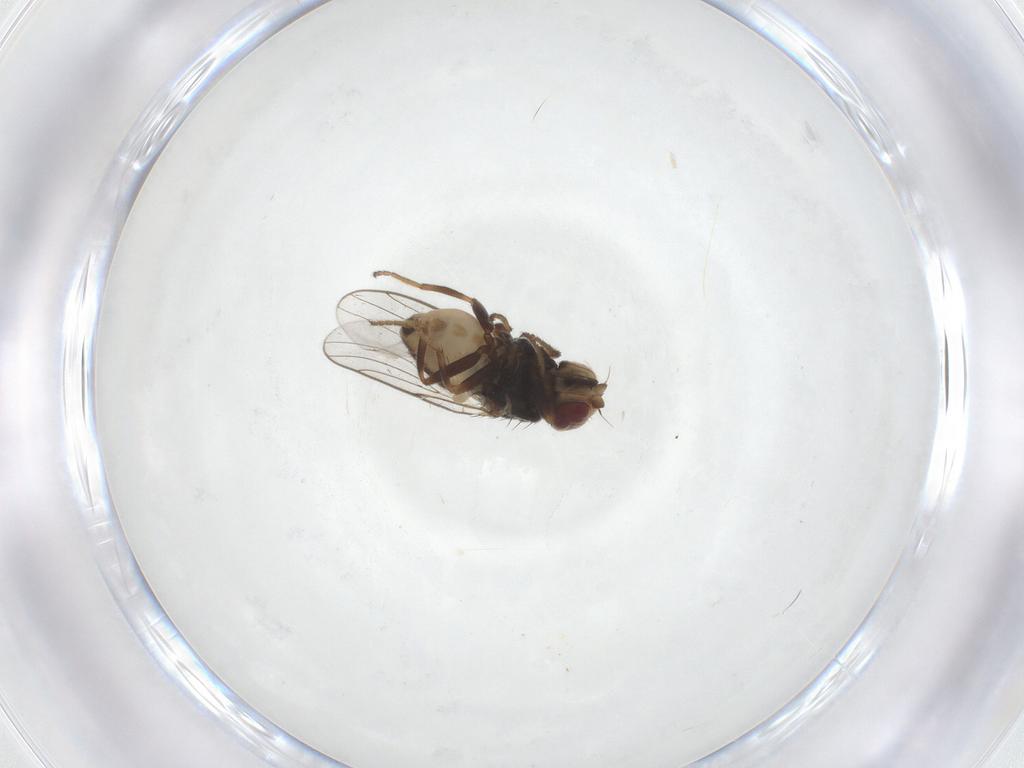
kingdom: Animalia
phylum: Arthropoda
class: Insecta
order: Diptera
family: Chloropidae
